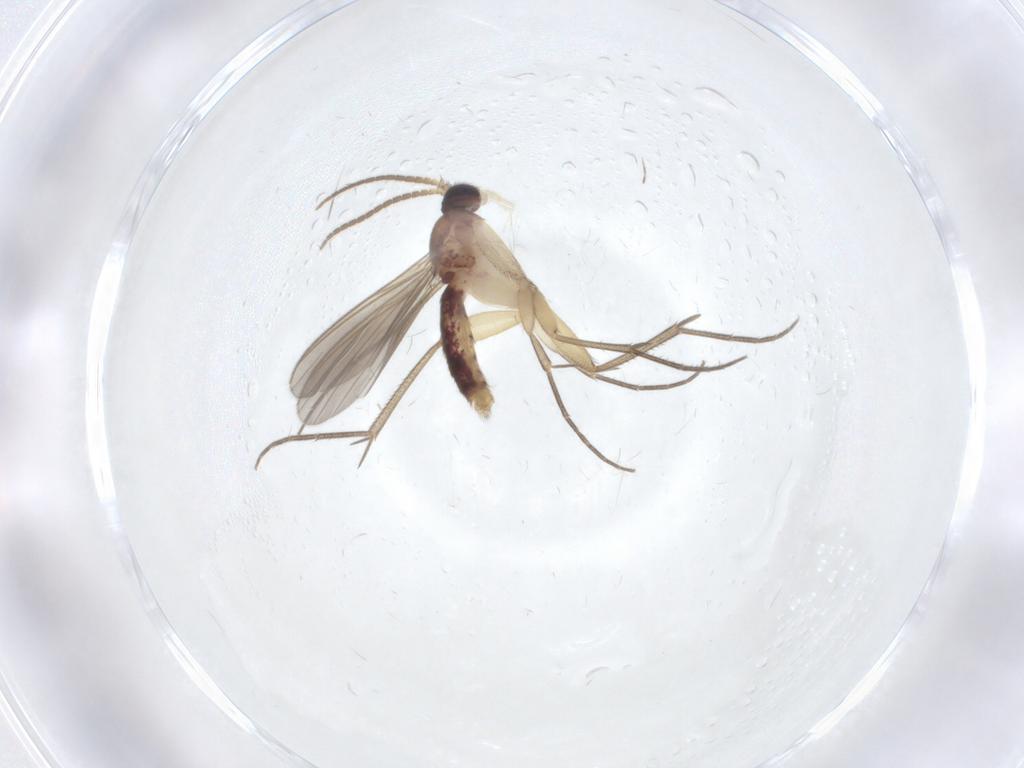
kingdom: Animalia
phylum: Arthropoda
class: Insecta
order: Diptera
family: Mycetophilidae
